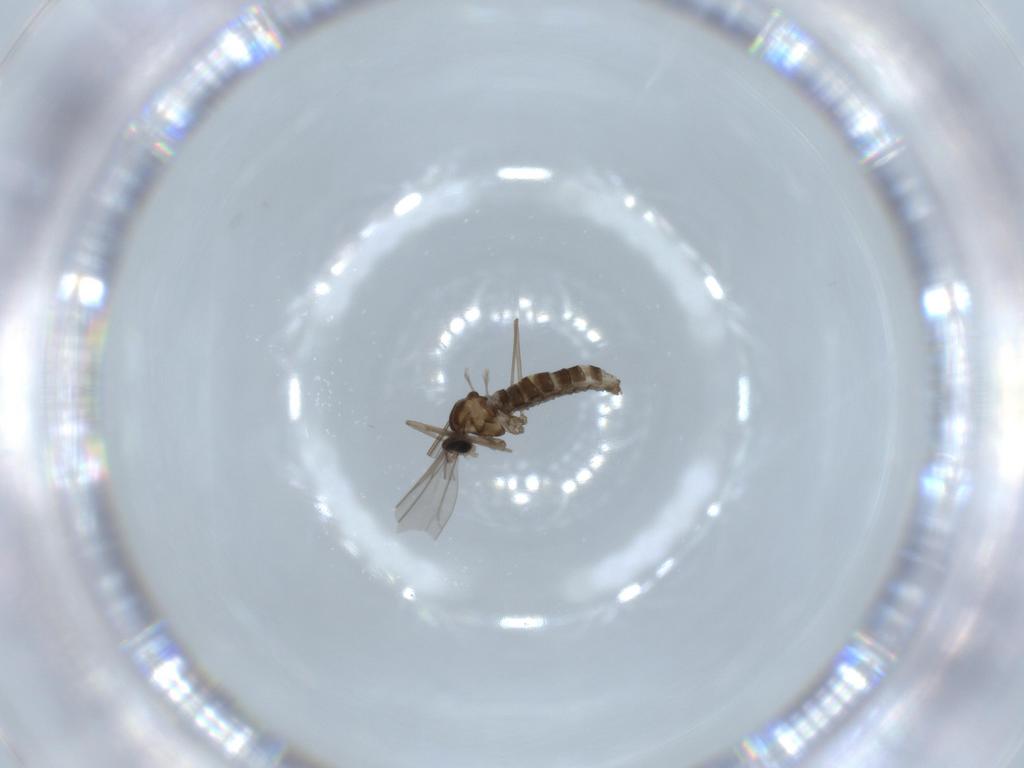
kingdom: Animalia
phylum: Arthropoda
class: Insecta
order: Diptera
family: Cecidomyiidae
